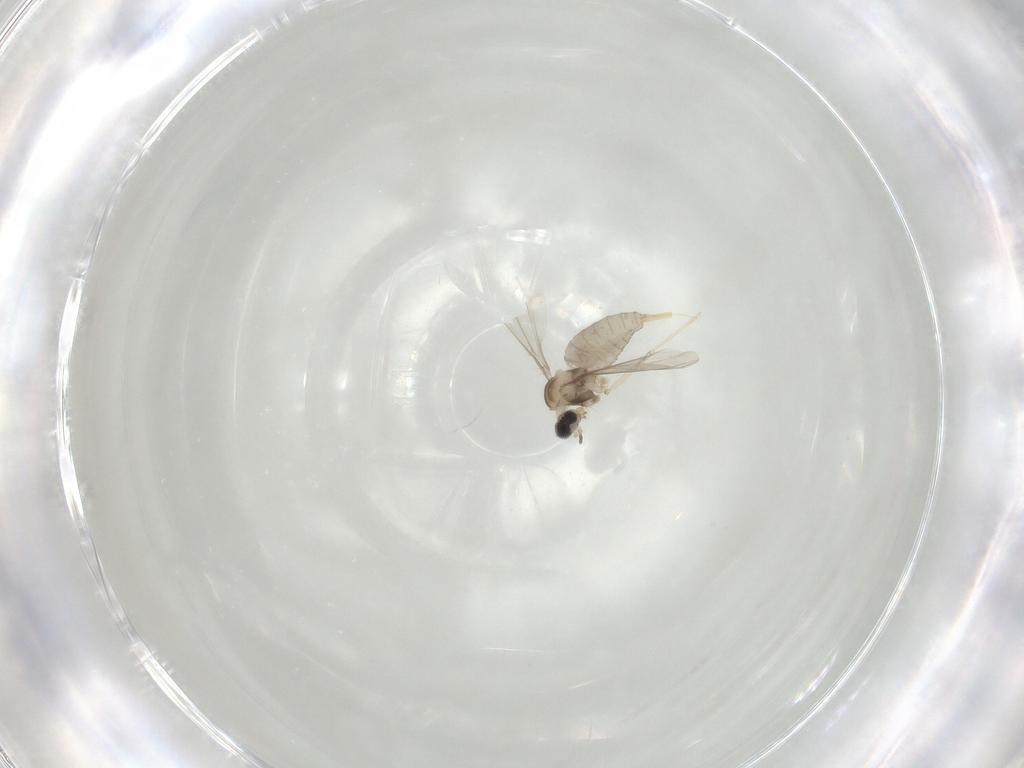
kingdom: Animalia
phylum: Arthropoda
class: Insecta
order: Diptera
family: Cecidomyiidae
